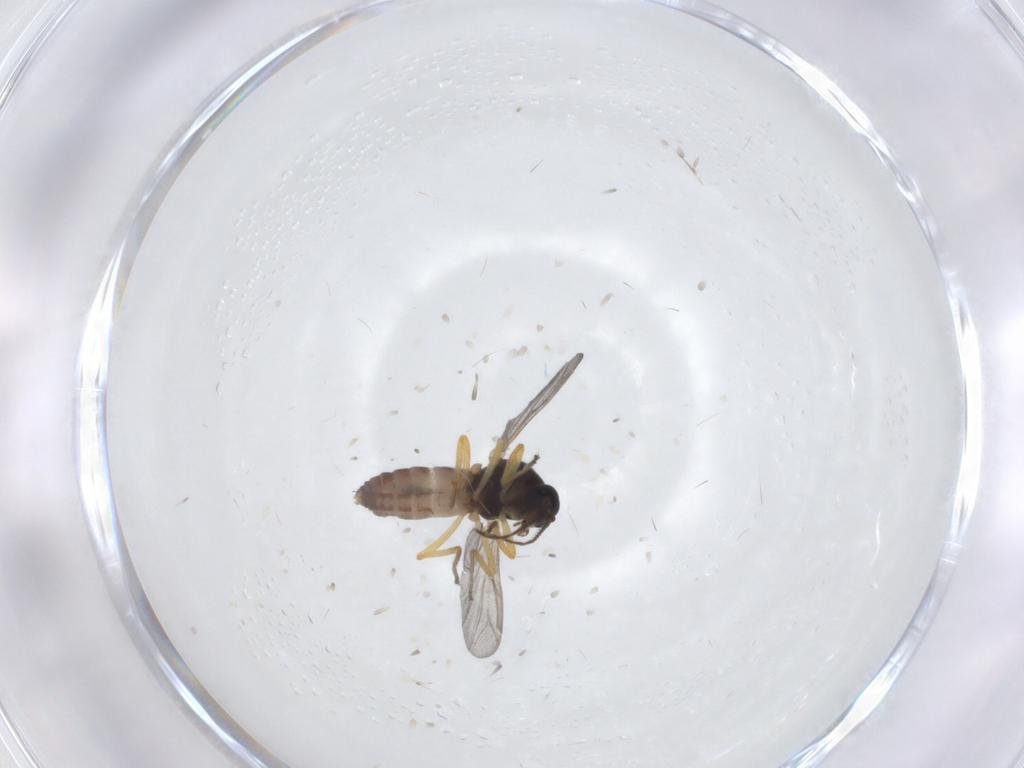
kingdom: Animalia
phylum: Arthropoda
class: Insecta
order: Diptera
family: Ceratopogonidae
